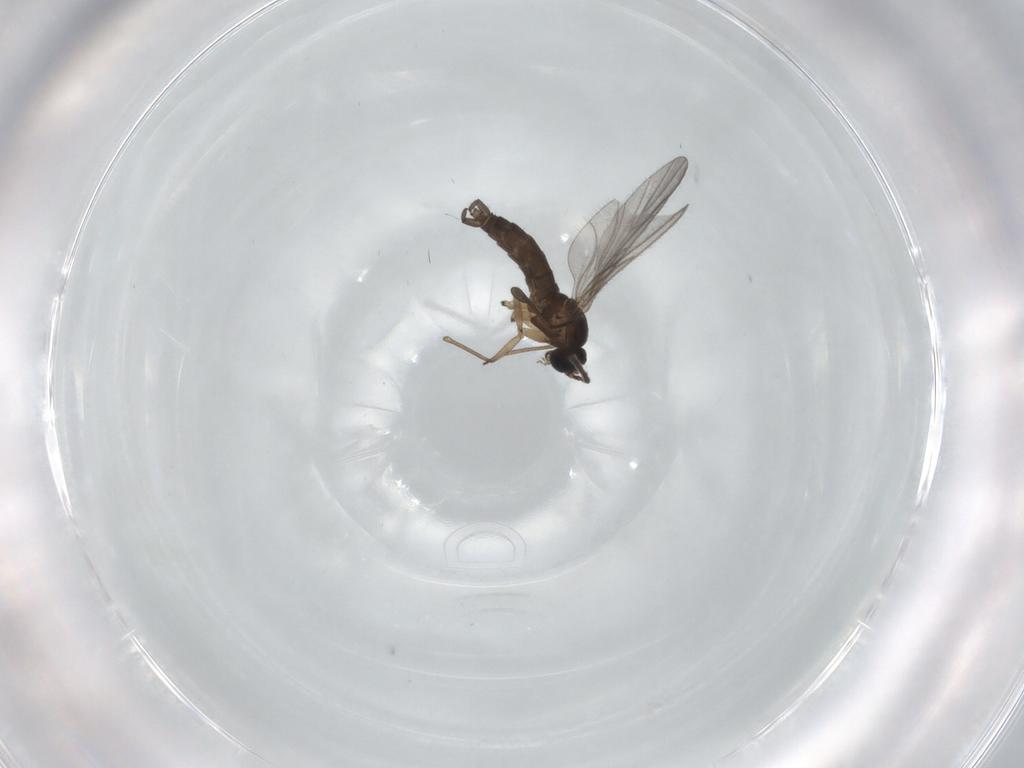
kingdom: Animalia
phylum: Arthropoda
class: Insecta
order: Diptera
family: Sciaridae
